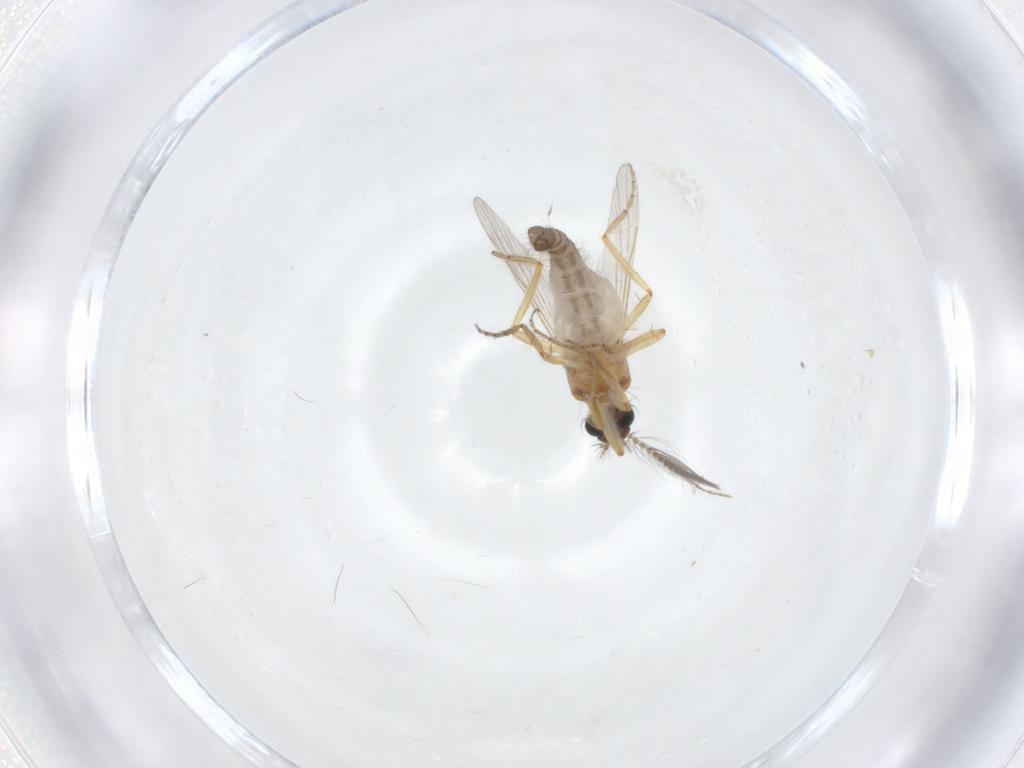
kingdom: Animalia
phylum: Arthropoda
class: Insecta
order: Diptera
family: Ceratopogonidae
